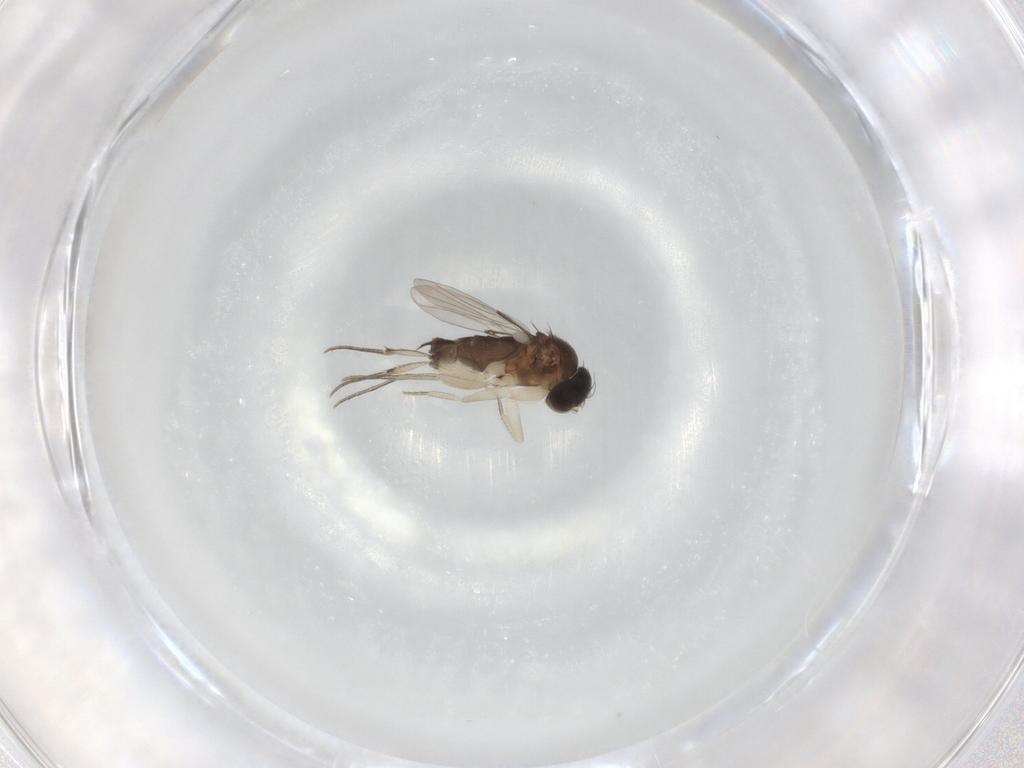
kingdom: Animalia
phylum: Arthropoda
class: Insecta
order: Diptera
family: Phoridae
